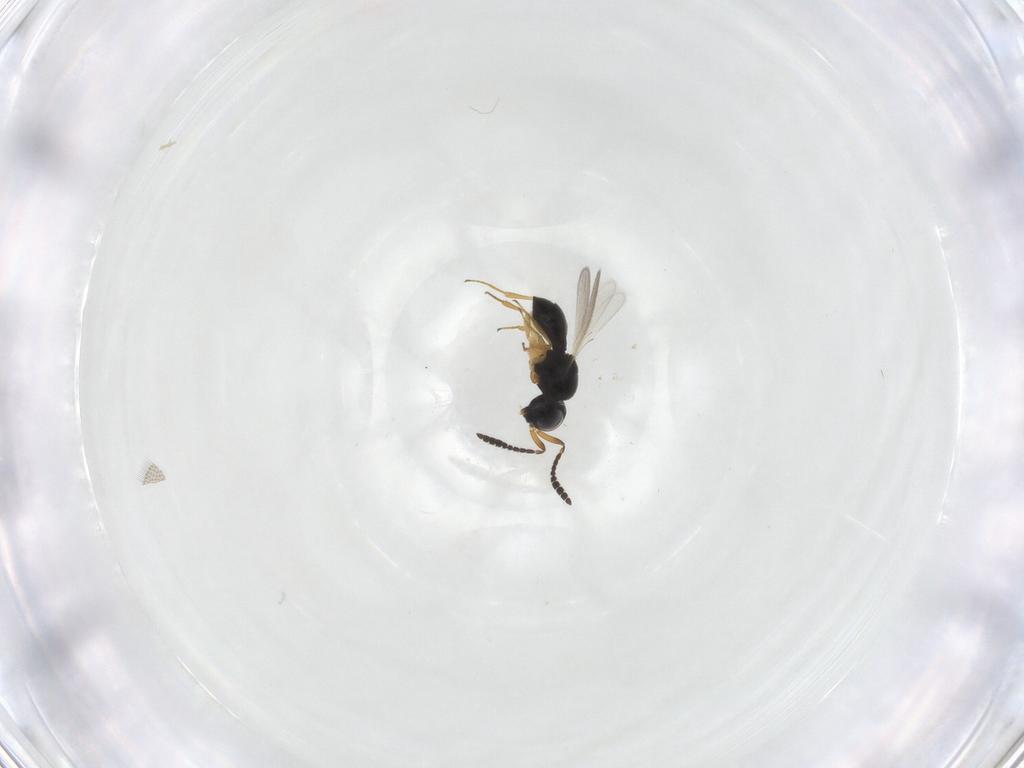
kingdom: Animalia
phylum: Arthropoda
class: Insecta
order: Hymenoptera
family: Scelionidae
